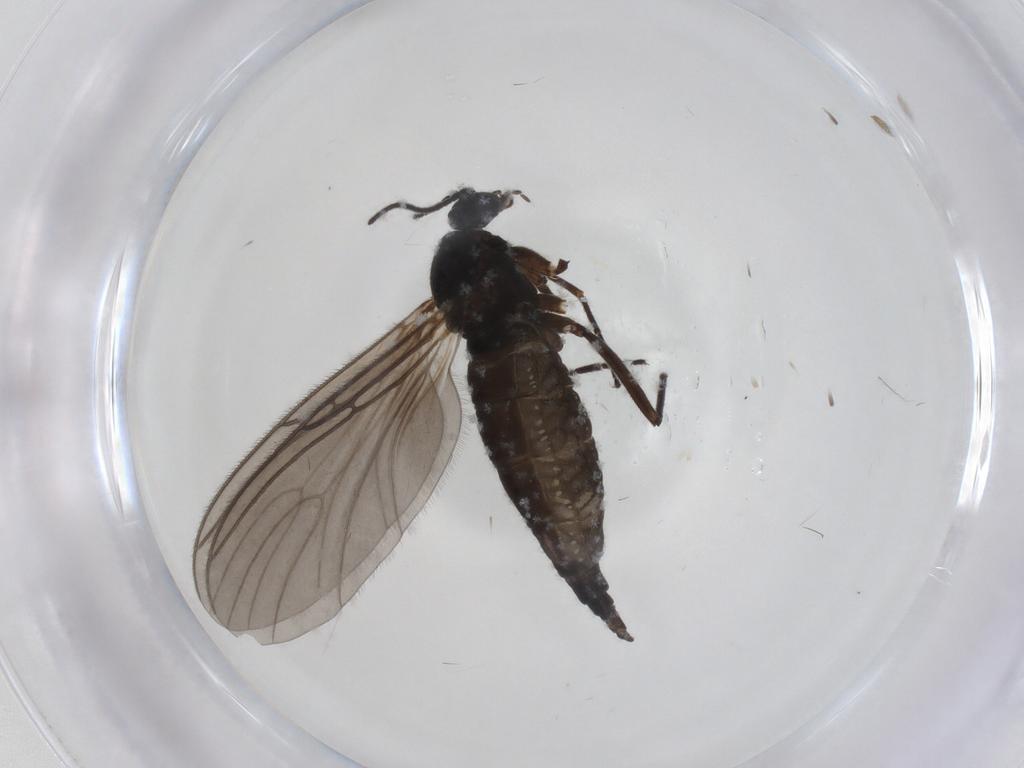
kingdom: Animalia
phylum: Arthropoda
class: Insecta
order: Diptera
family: Sciaridae
